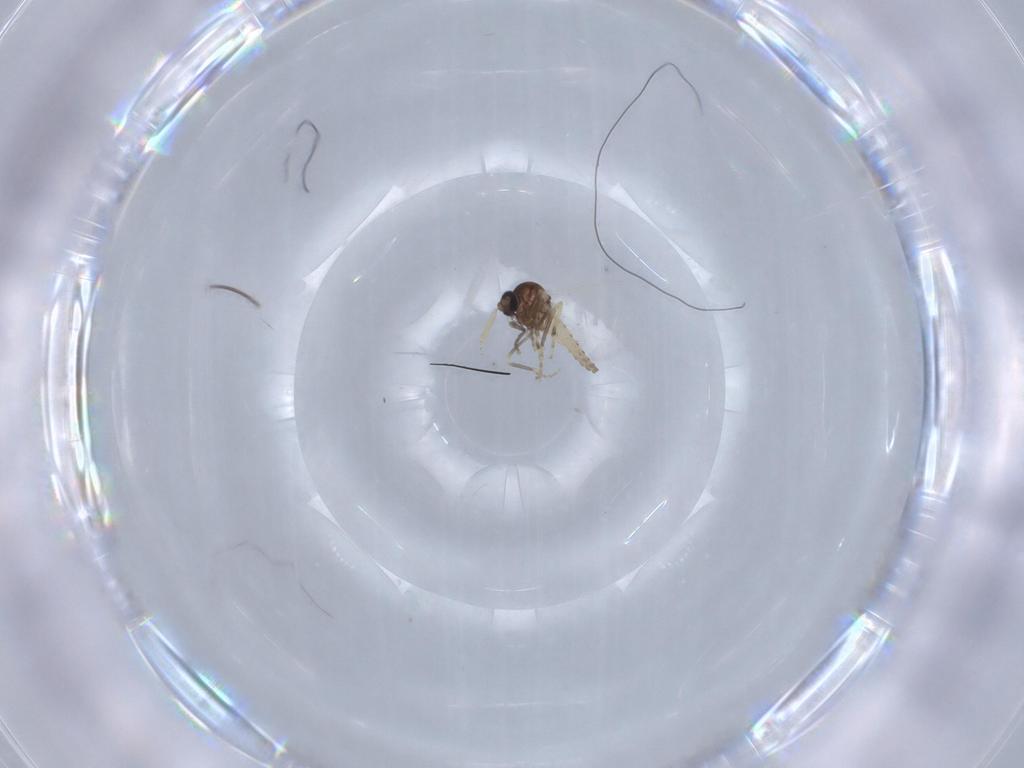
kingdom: Animalia
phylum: Arthropoda
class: Insecta
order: Diptera
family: Ceratopogonidae
